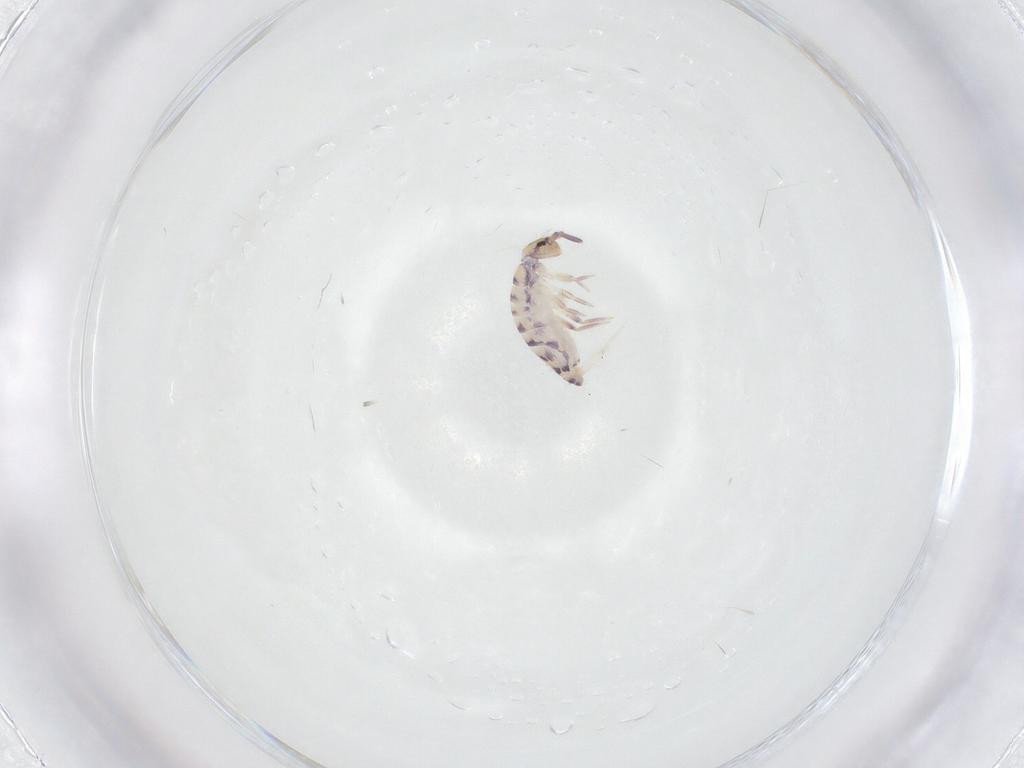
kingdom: Animalia
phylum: Arthropoda
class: Collembola
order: Entomobryomorpha
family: Entomobryidae
